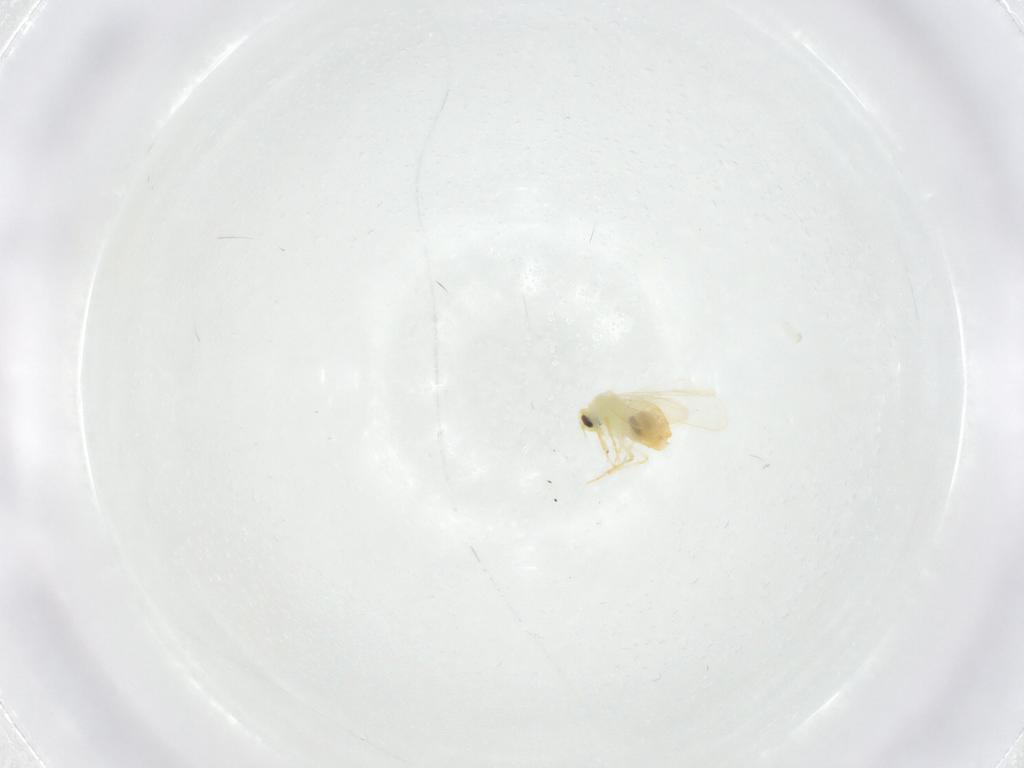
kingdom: Animalia
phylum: Arthropoda
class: Insecta
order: Hemiptera
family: Aleyrodidae
